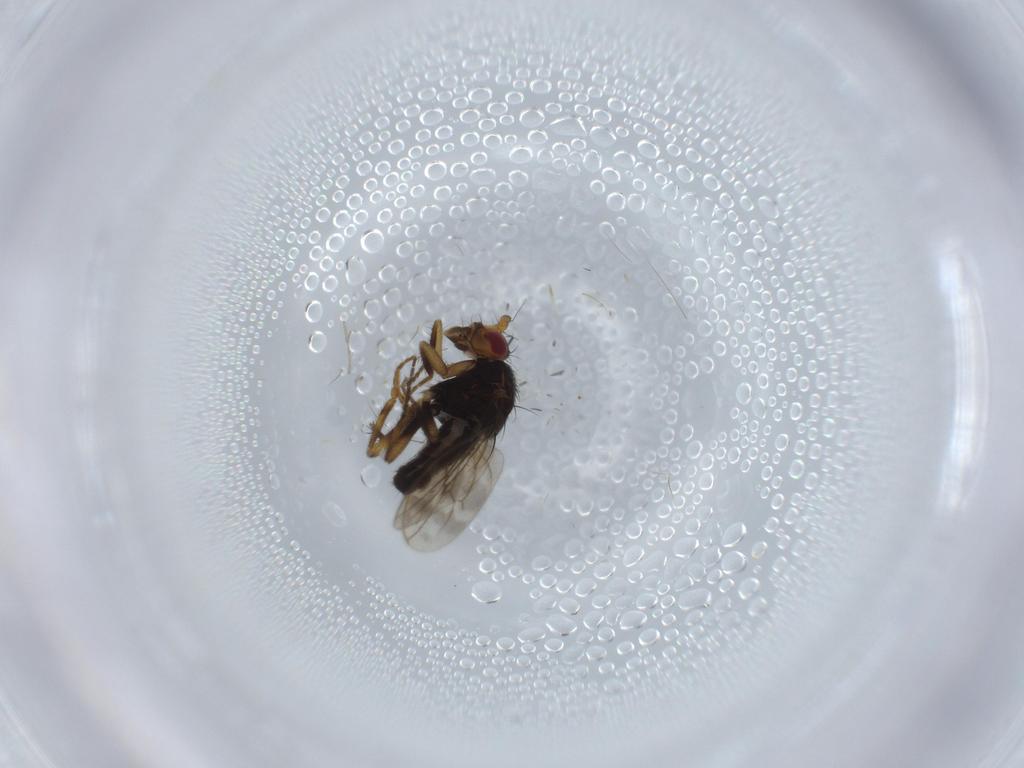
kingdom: Animalia
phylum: Arthropoda
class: Insecta
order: Diptera
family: Sphaeroceridae
